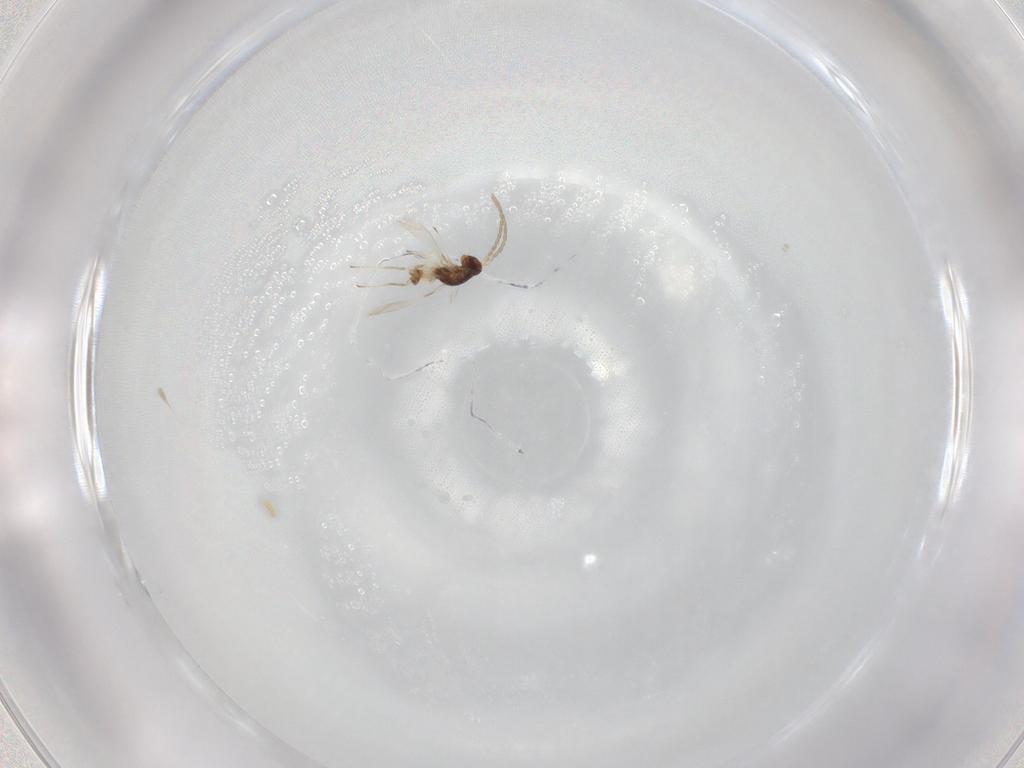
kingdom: Animalia
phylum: Arthropoda
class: Insecta
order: Hymenoptera
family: Mymaridae
